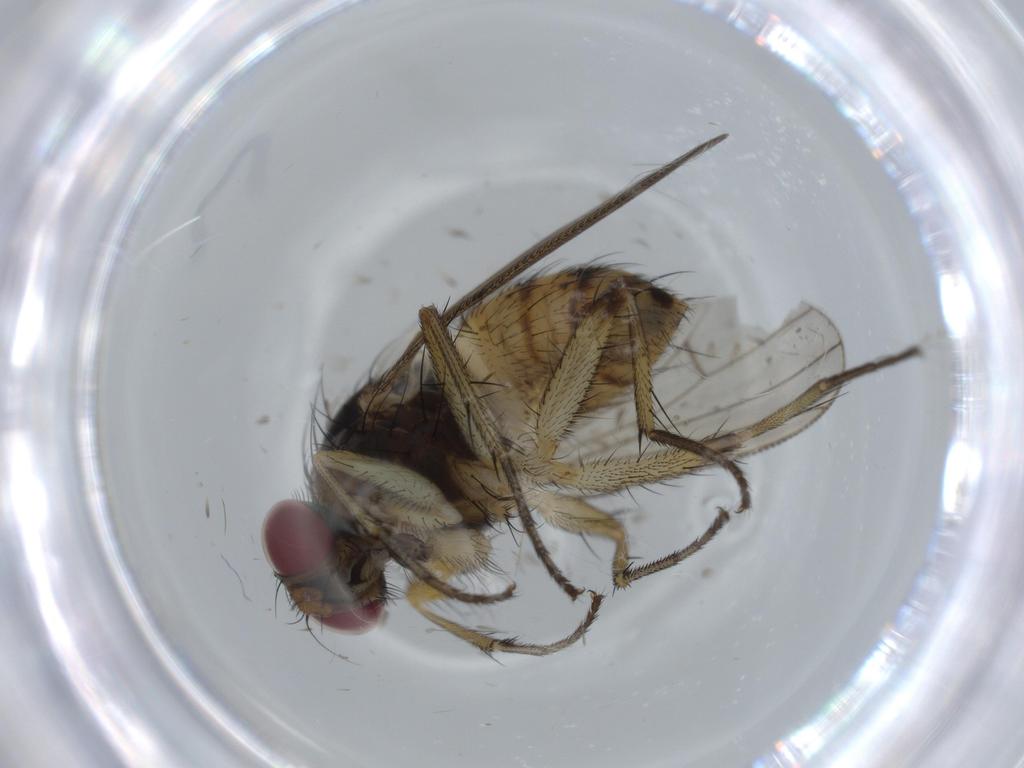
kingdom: Animalia
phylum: Arthropoda
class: Insecta
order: Diptera
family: Muscidae
